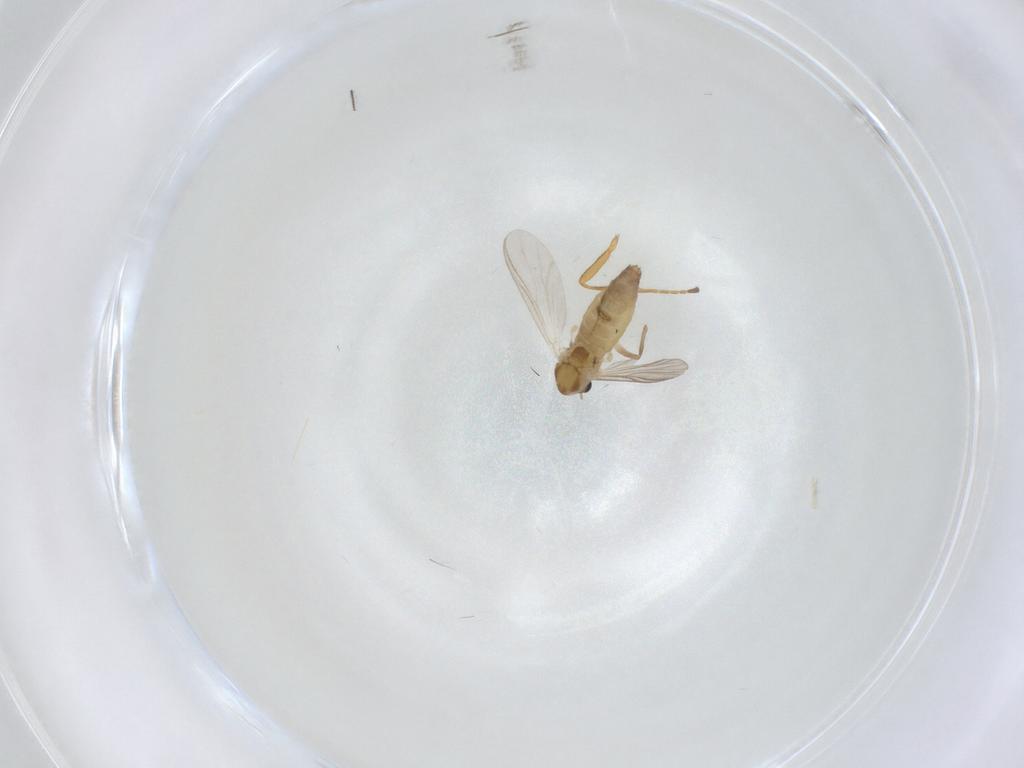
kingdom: Animalia
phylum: Arthropoda
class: Insecta
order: Diptera
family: Chironomidae
